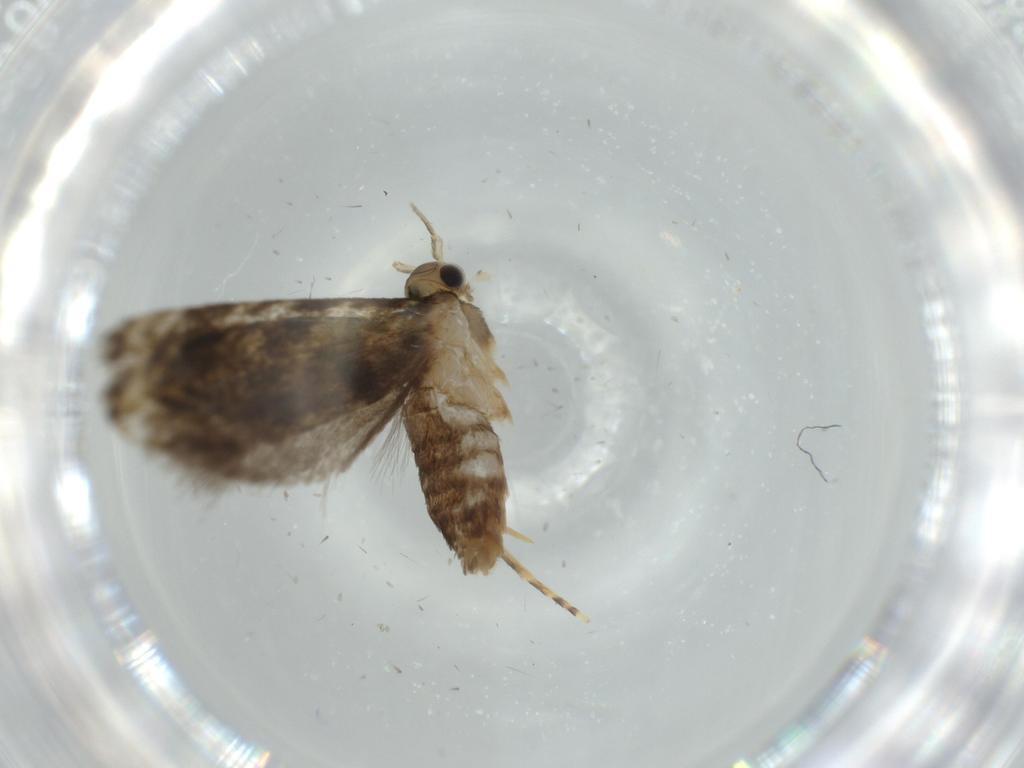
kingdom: Animalia
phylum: Arthropoda
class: Insecta
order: Lepidoptera
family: Tineidae
